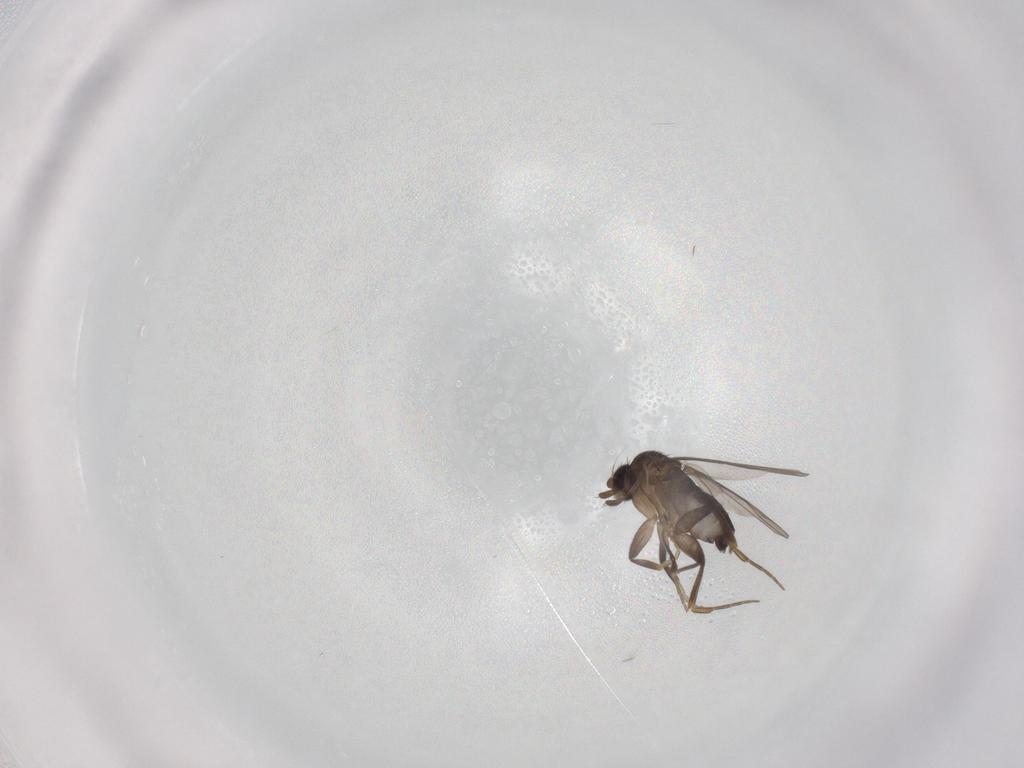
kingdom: Animalia
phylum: Arthropoda
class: Insecta
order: Diptera
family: Phoridae
